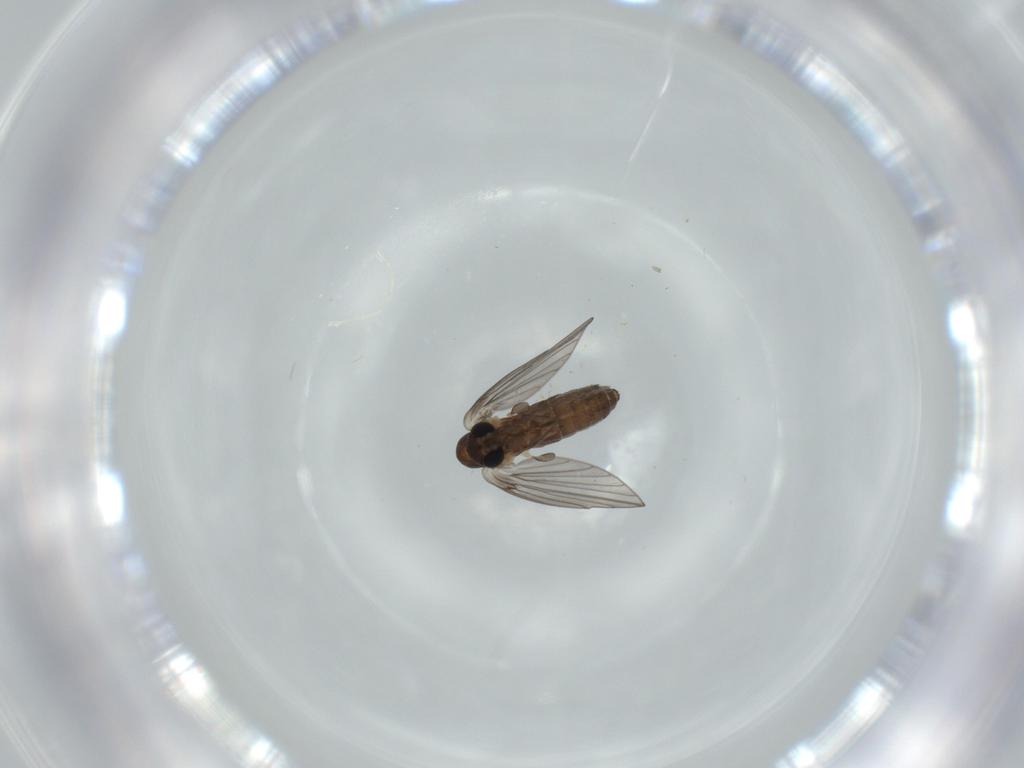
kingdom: Animalia
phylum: Arthropoda
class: Insecta
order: Diptera
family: Psychodidae
